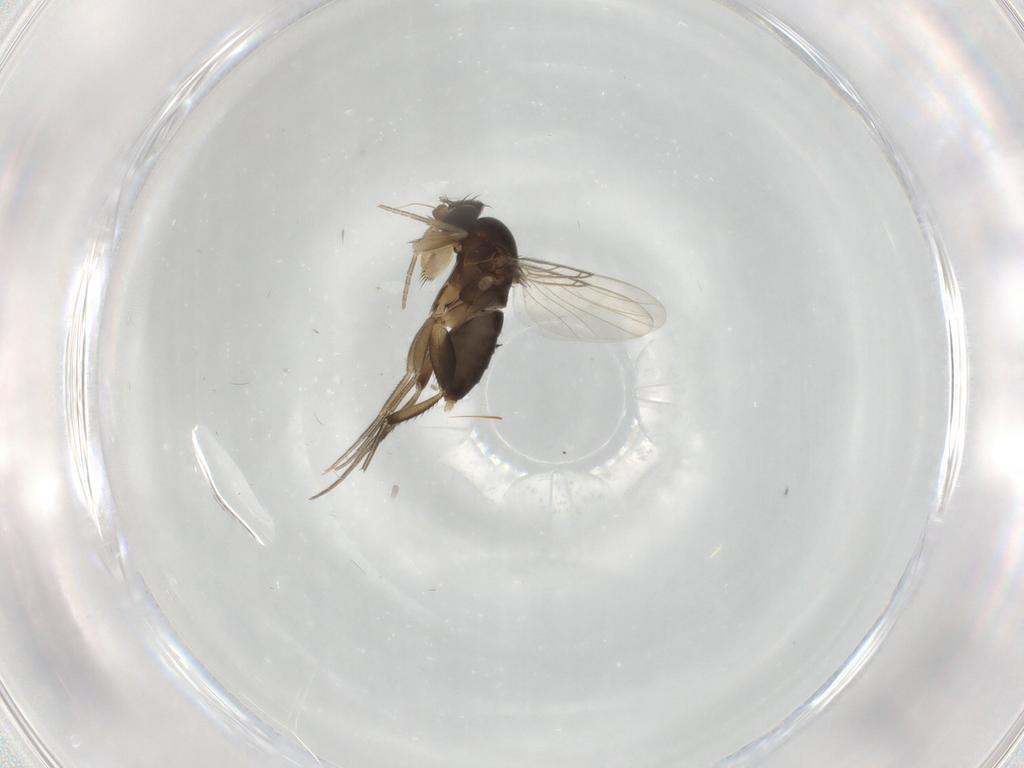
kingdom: Animalia
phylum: Arthropoda
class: Insecta
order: Diptera
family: Phoridae
